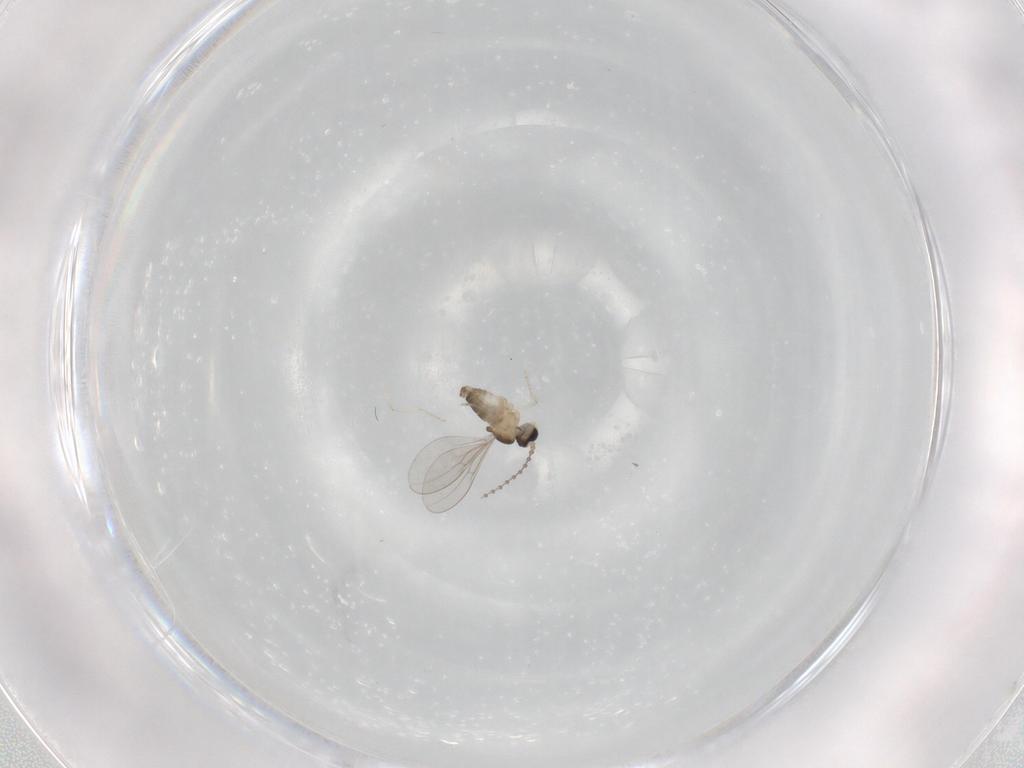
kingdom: Animalia
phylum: Arthropoda
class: Insecta
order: Diptera
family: Cecidomyiidae
